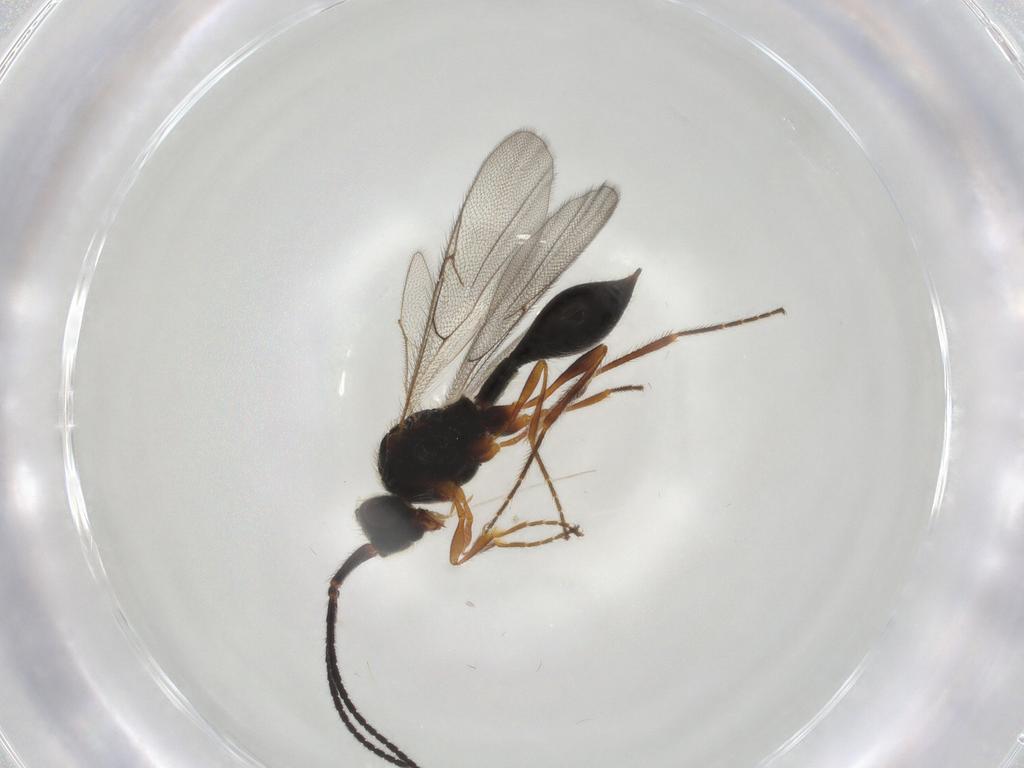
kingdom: Animalia
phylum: Arthropoda
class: Insecta
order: Hymenoptera
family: Diapriidae
